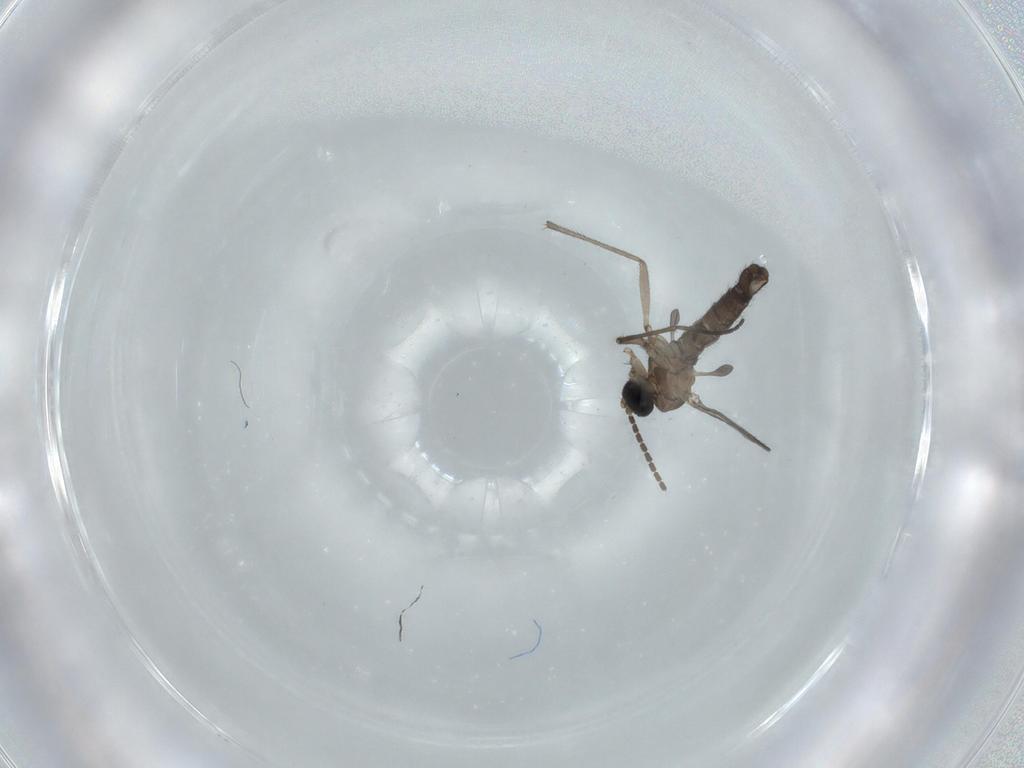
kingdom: Animalia
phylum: Arthropoda
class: Insecta
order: Diptera
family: Sciaridae
